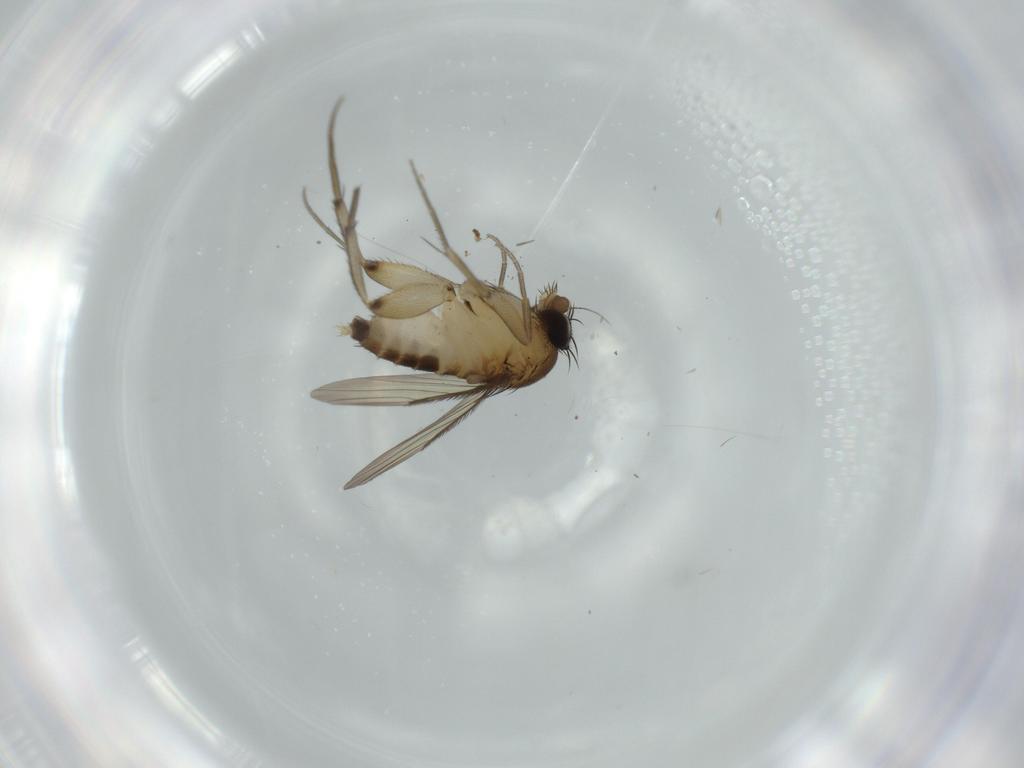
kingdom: Animalia
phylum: Arthropoda
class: Insecta
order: Diptera
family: Phoridae
